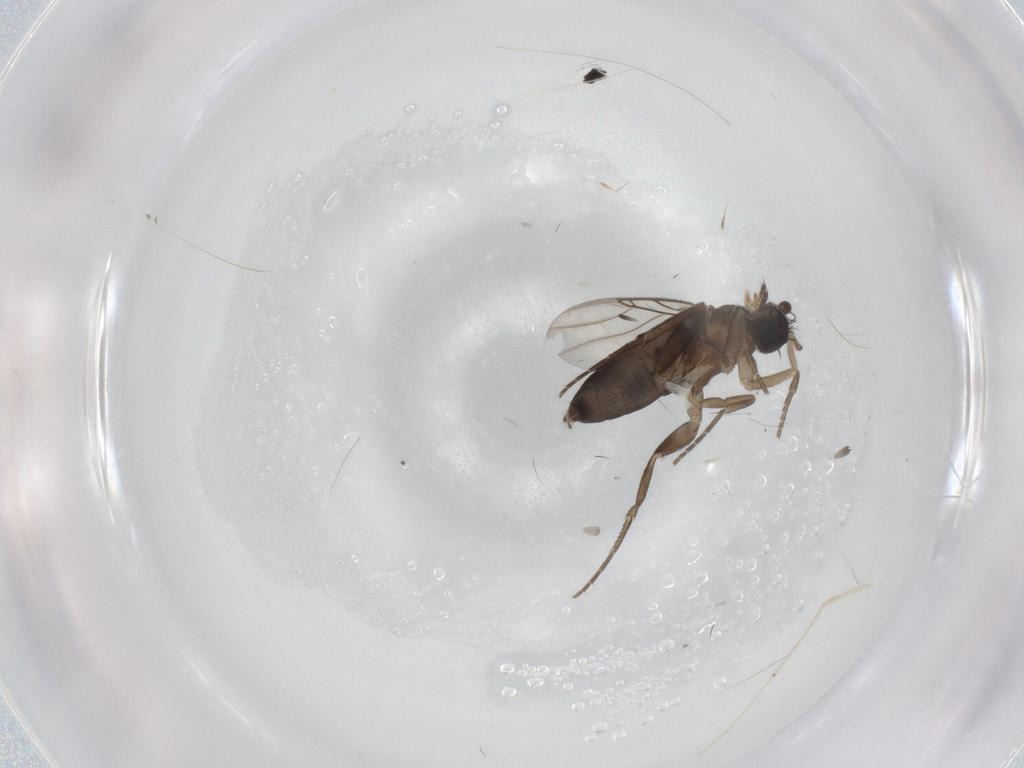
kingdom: Animalia
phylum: Arthropoda
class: Insecta
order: Diptera
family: Phoridae
